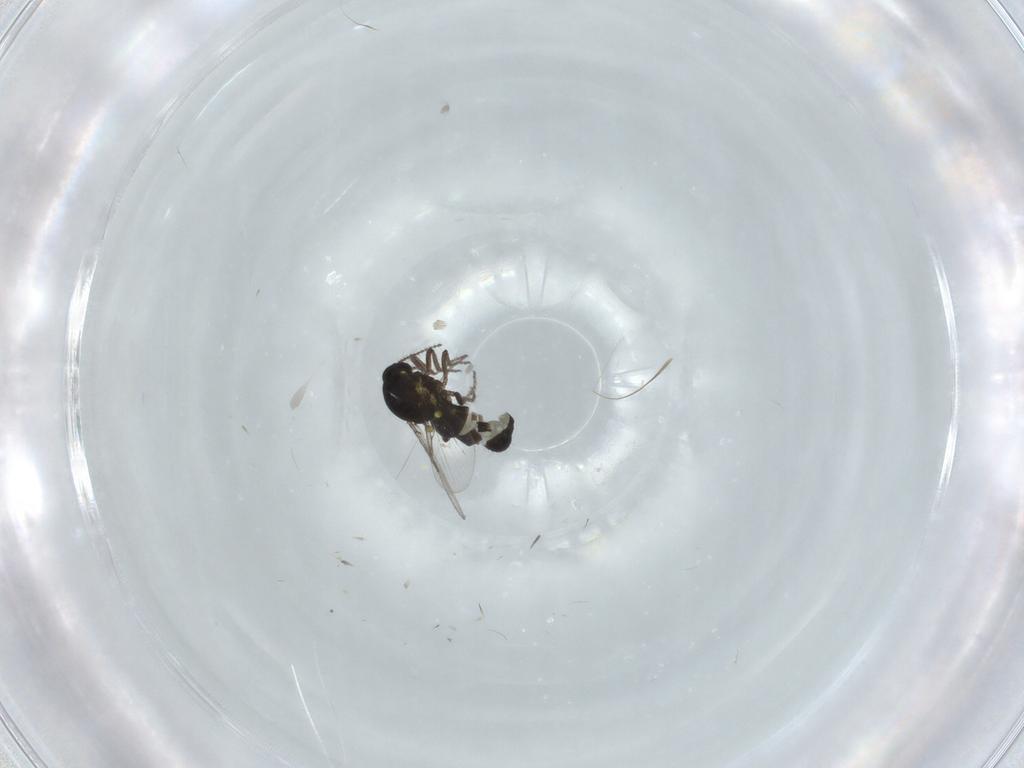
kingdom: Animalia
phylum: Arthropoda
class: Insecta
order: Diptera
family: Ceratopogonidae
